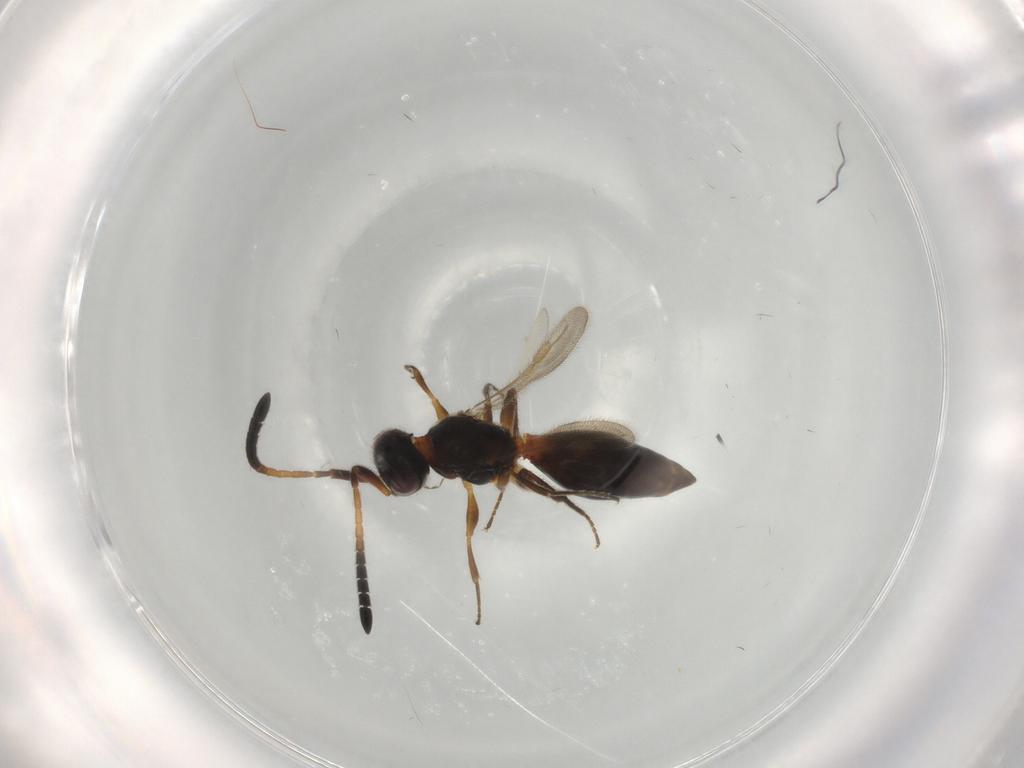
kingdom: Animalia
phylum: Arthropoda
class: Insecta
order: Hymenoptera
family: Megaspilidae
